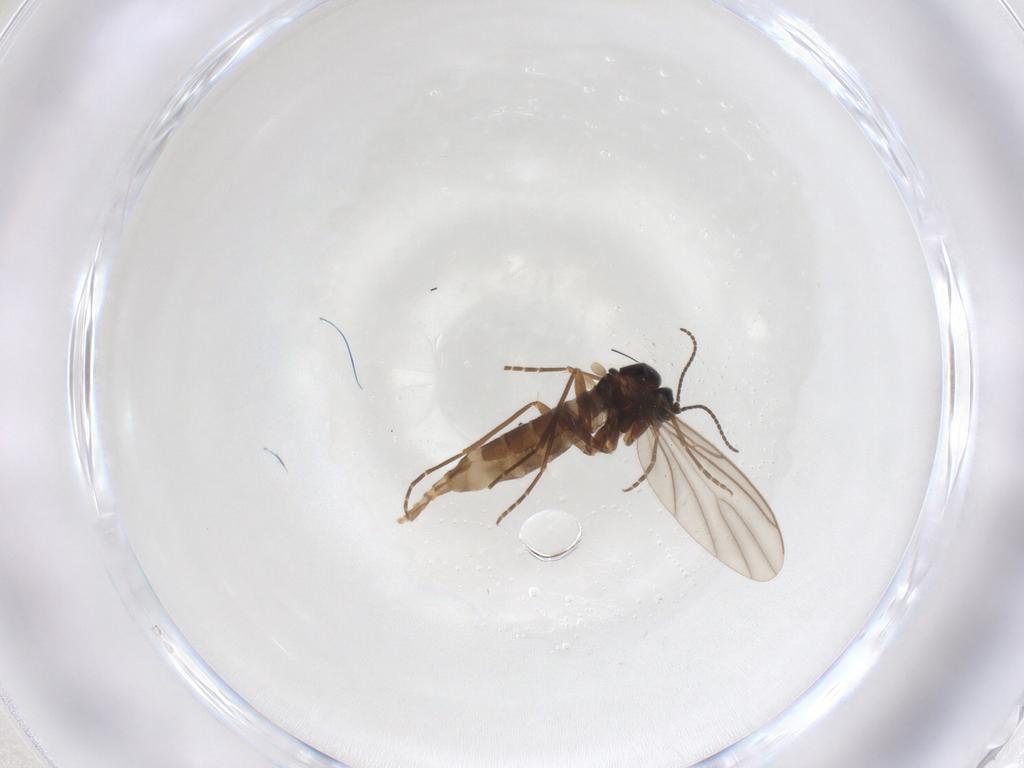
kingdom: Animalia
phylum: Arthropoda
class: Insecta
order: Diptera
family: Sciaridae
